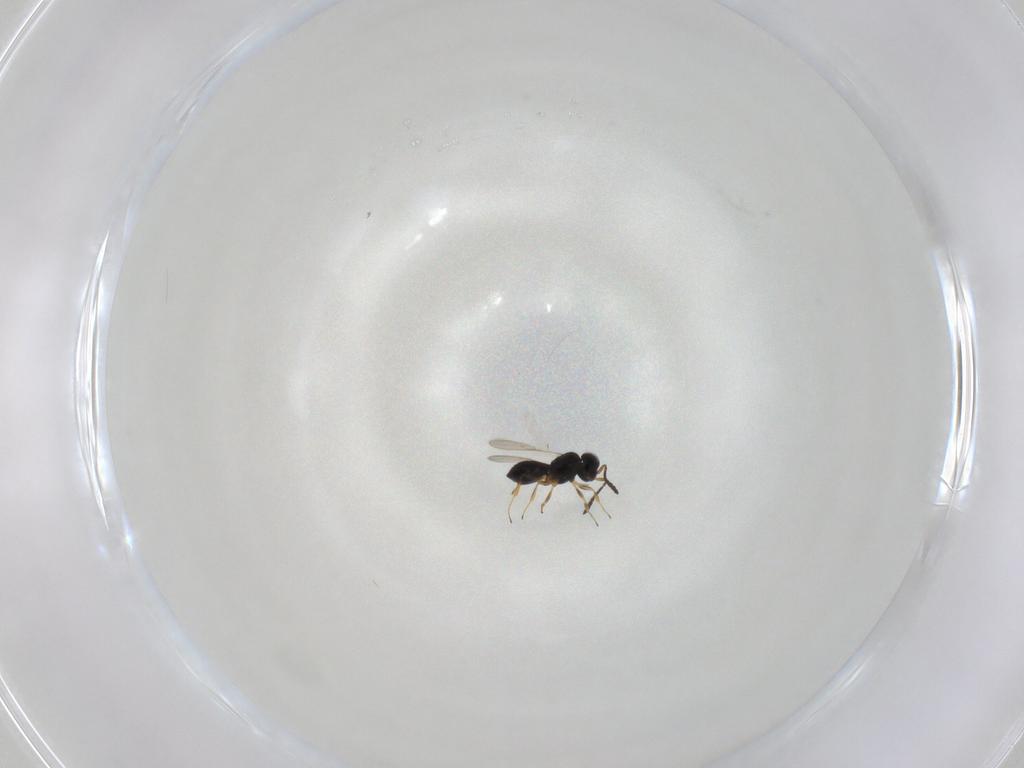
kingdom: Animalia
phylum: Arthropoda
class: Insecta
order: Hymenoptera
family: Scelionidae
